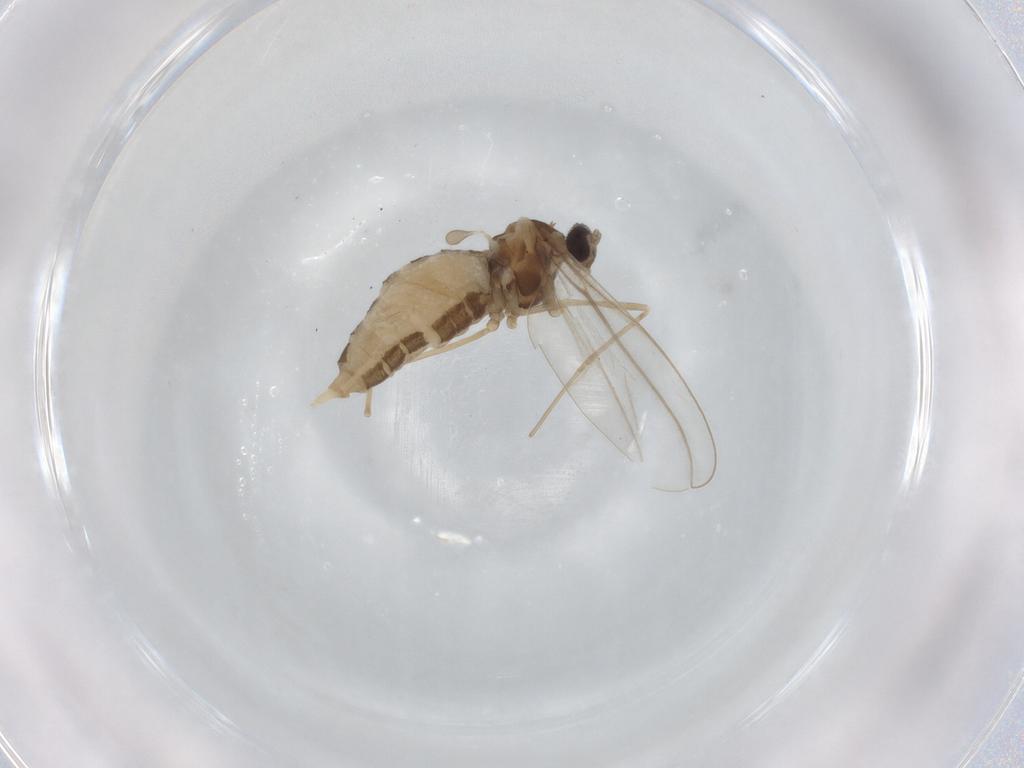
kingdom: Animalia
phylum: Arthropoda
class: Insecta
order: Diptera
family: Cecidomyiidae
